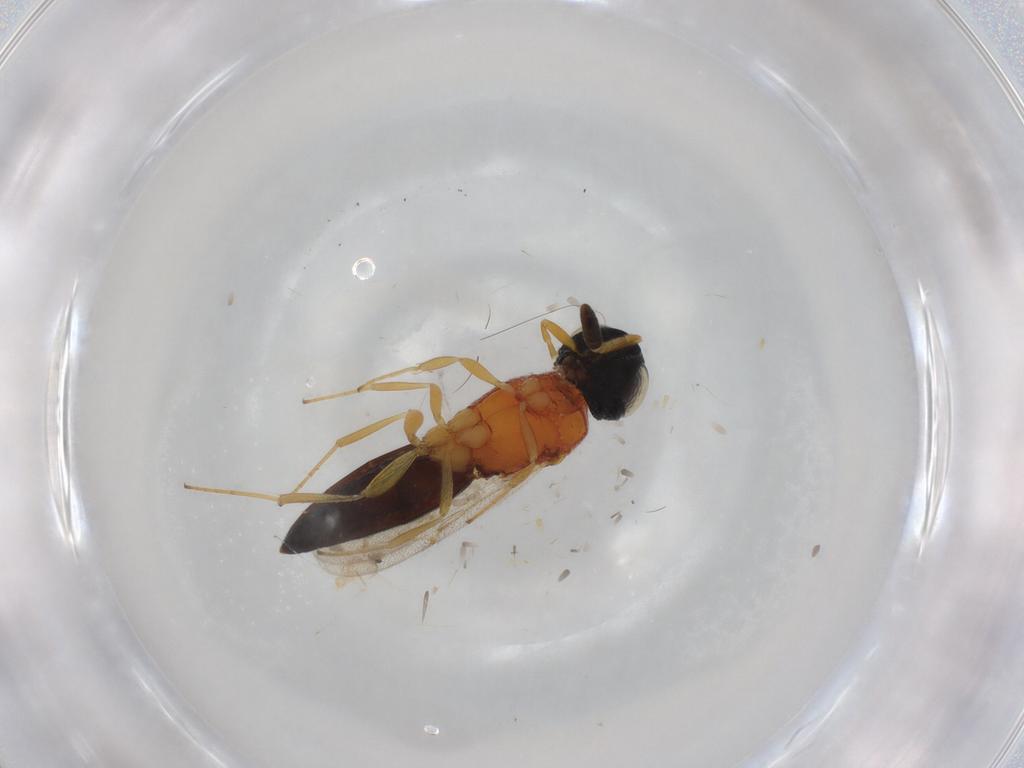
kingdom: Animalia
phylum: Arthropoda
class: Insecta
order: Hymenoptera
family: Scelionidae
